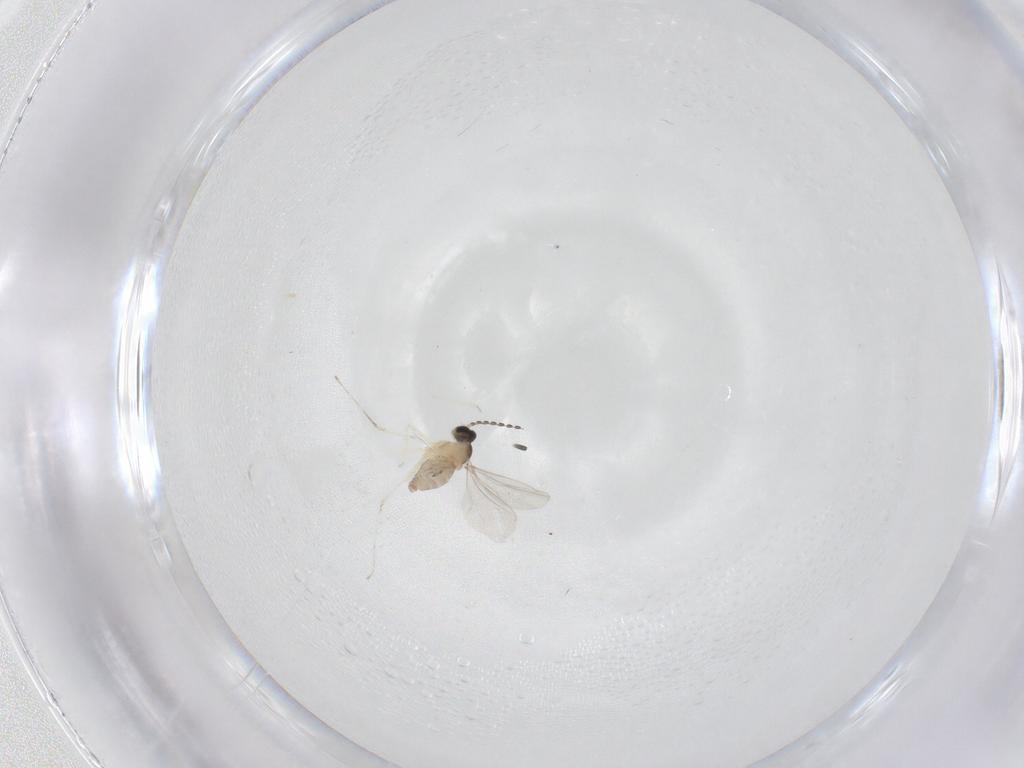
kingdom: Animalia
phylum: Arthropoda
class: Insecta
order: Diptera
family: Cecidomyiidae
